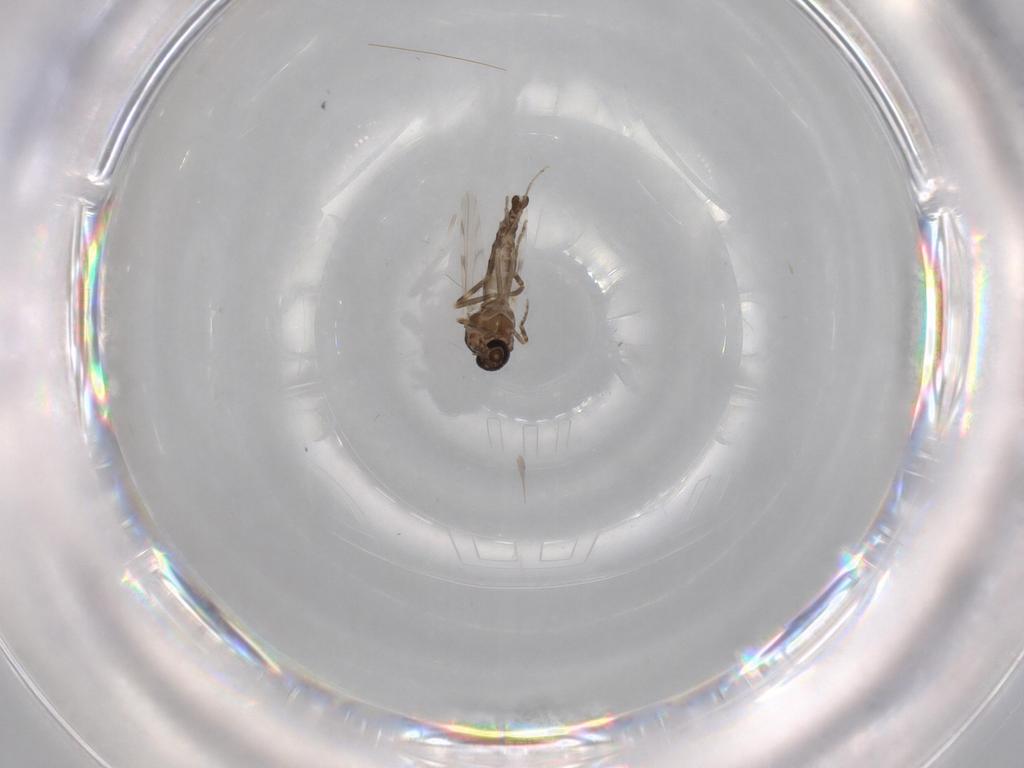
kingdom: Animalia
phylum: Arthropoda
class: Insecta
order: Diptera
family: Ceratopogonidae
